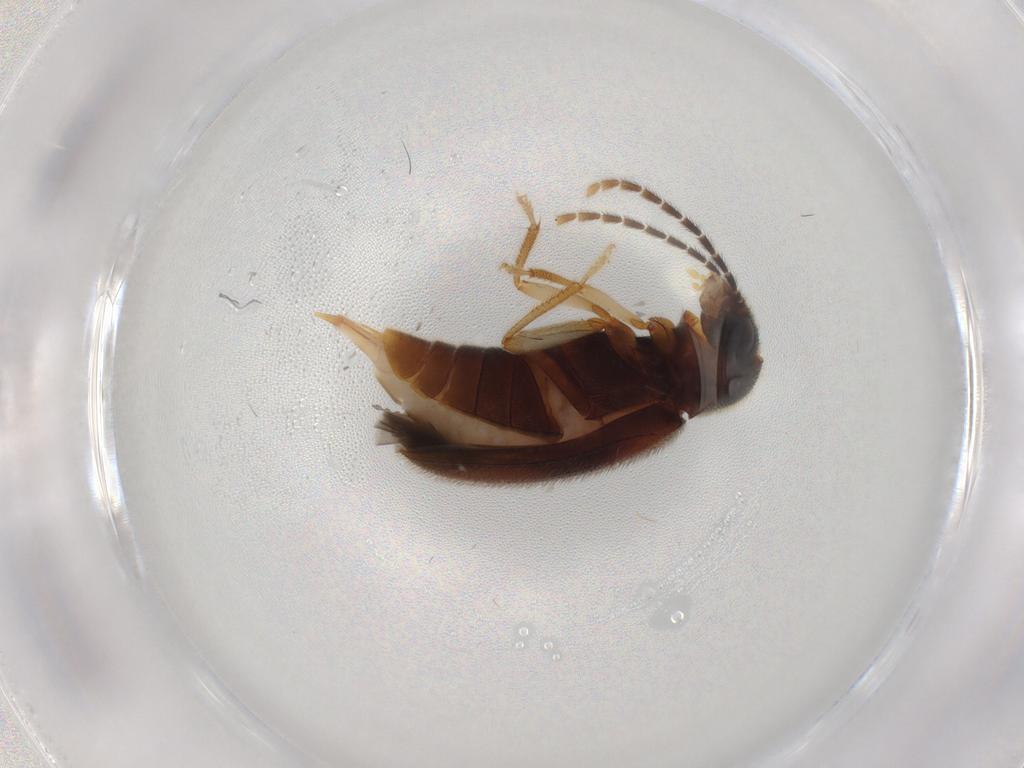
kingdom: Animalia
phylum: Arthropoda
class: Insecta
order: Coleoptera
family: Ptilodactylidae
